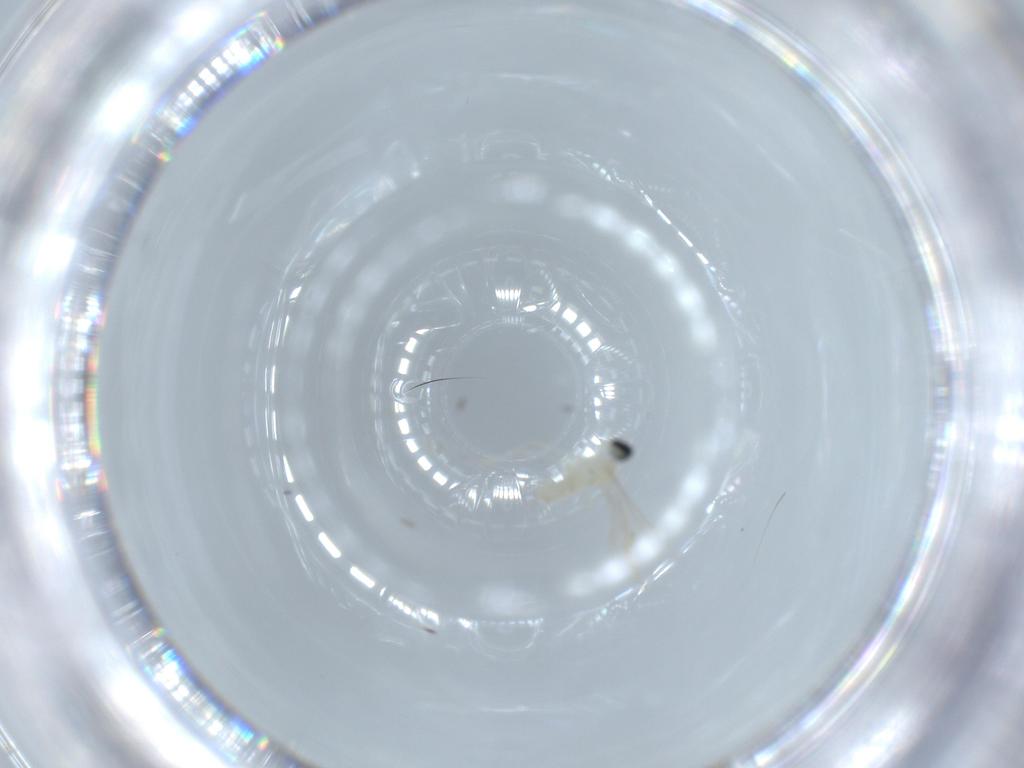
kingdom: Animalia
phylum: Arthropoda
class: Insecta
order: Diptera
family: Cecidomyiidae
